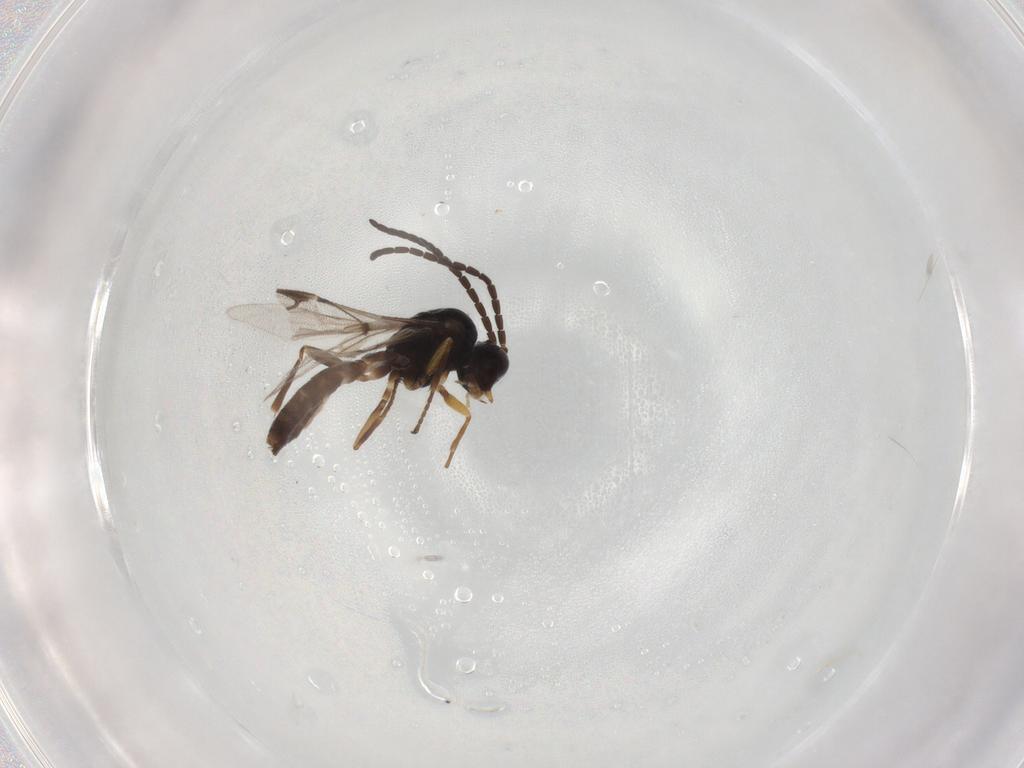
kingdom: Animalia
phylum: Arthropoda
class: Insecta
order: Hymenoptera
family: Braconidae
